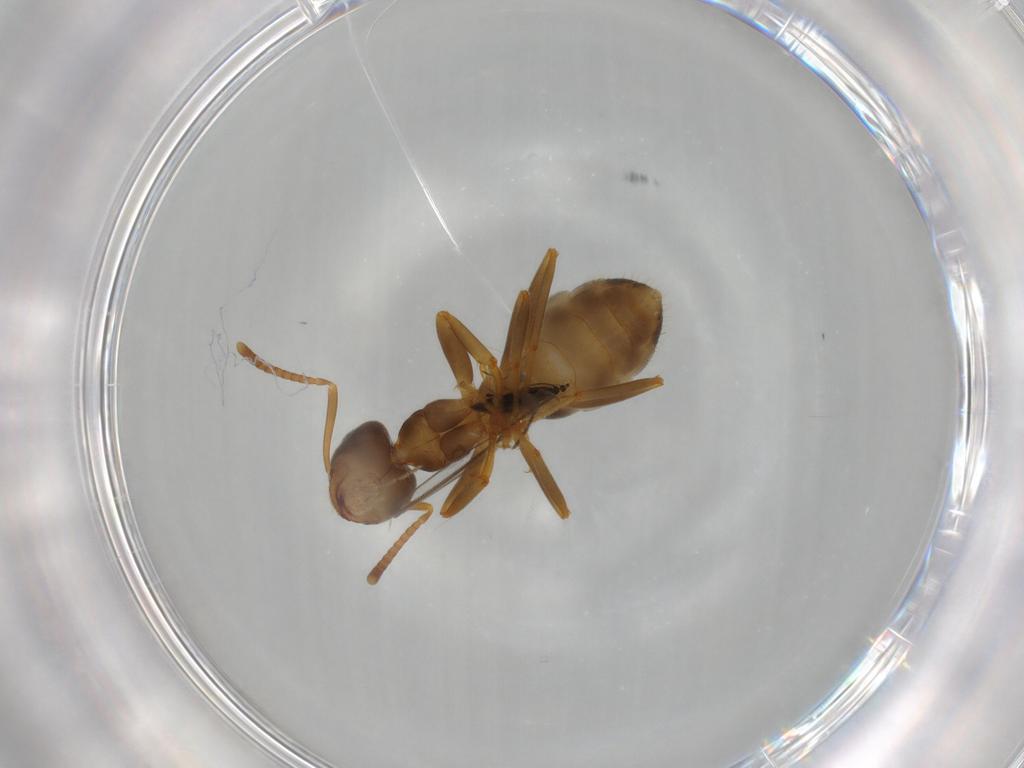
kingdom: Animalia
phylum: Arthropoda
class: Insecta
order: Hymenoptera
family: Formicidae
